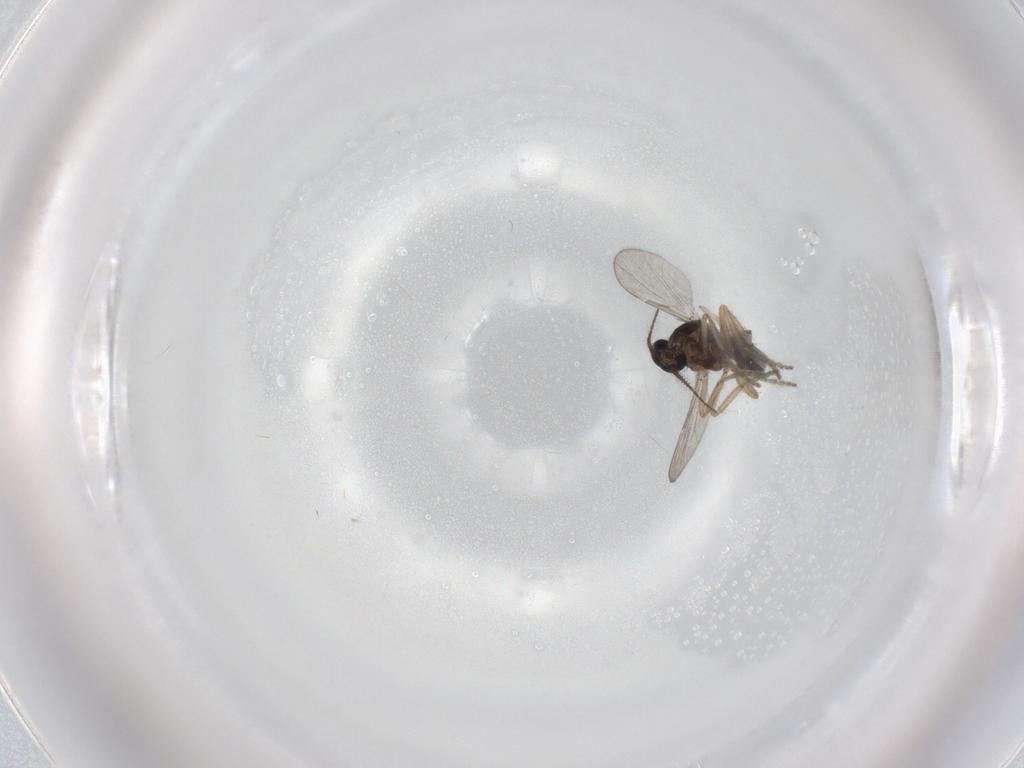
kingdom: Animalia
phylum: Arthropoda
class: Insecta
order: Diptera
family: Ceratopogonidae
